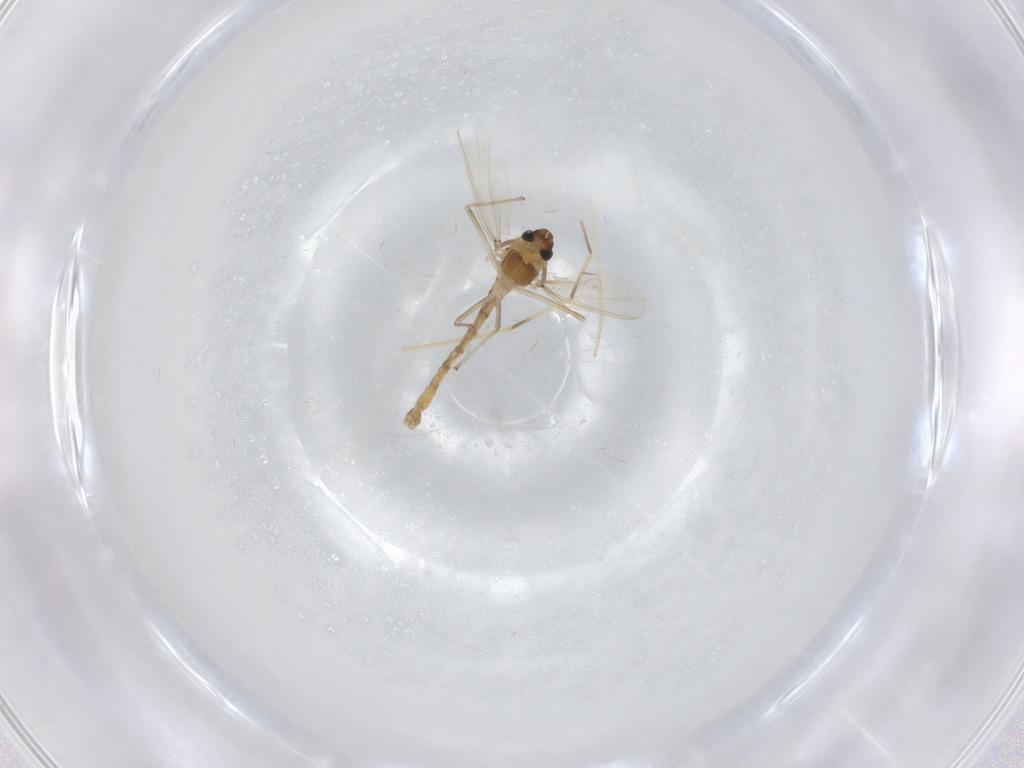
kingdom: Animalia
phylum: Arthropoda
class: Insecta
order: Diptera
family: Chironomidae
